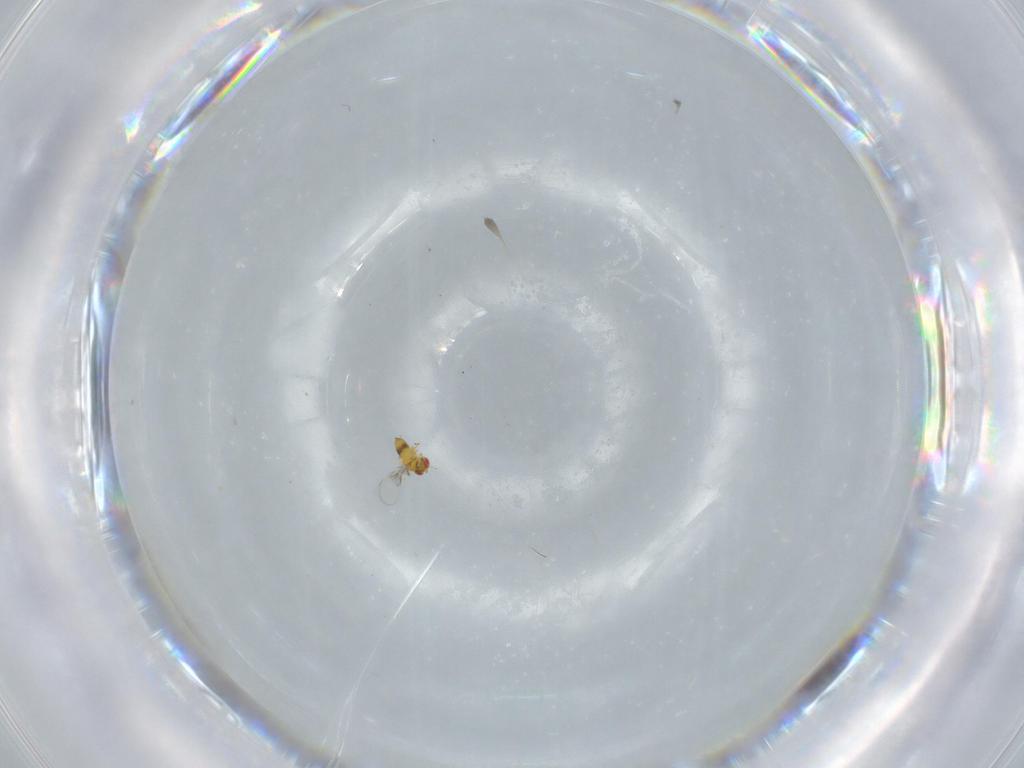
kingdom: Animalia
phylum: Arthropoda
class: Insecta
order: Hymenoptera
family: Trichogrammatidae
